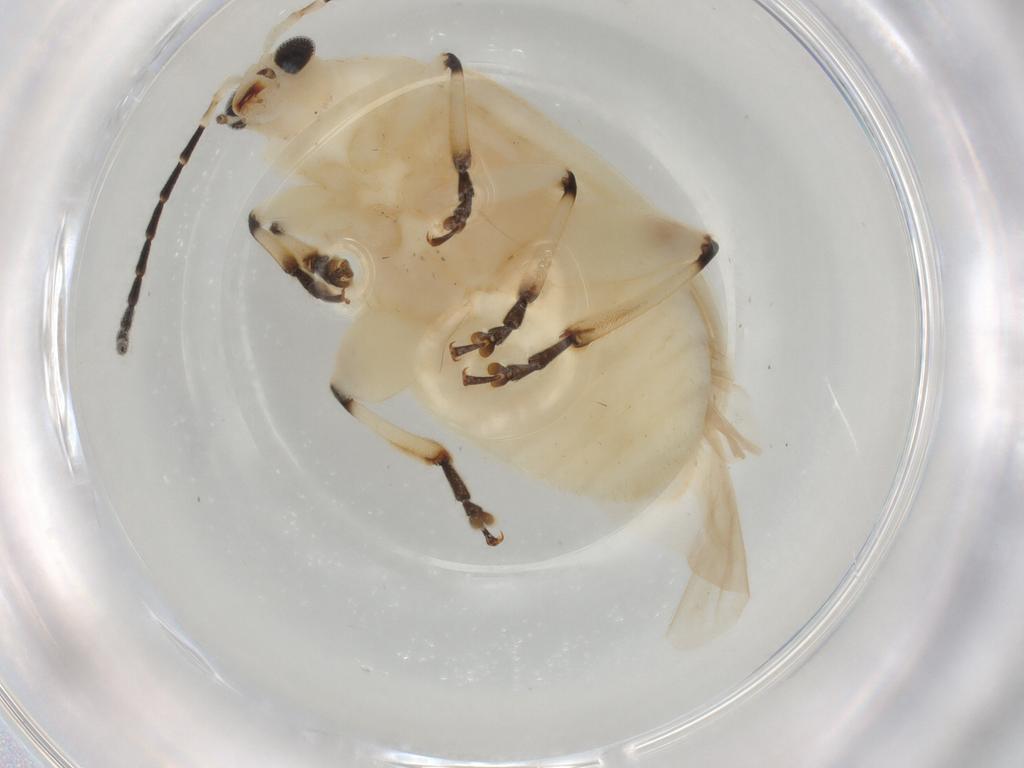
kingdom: Animalia
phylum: Arthropoda
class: Insecta
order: Coleoptera
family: Chrysomelidae
